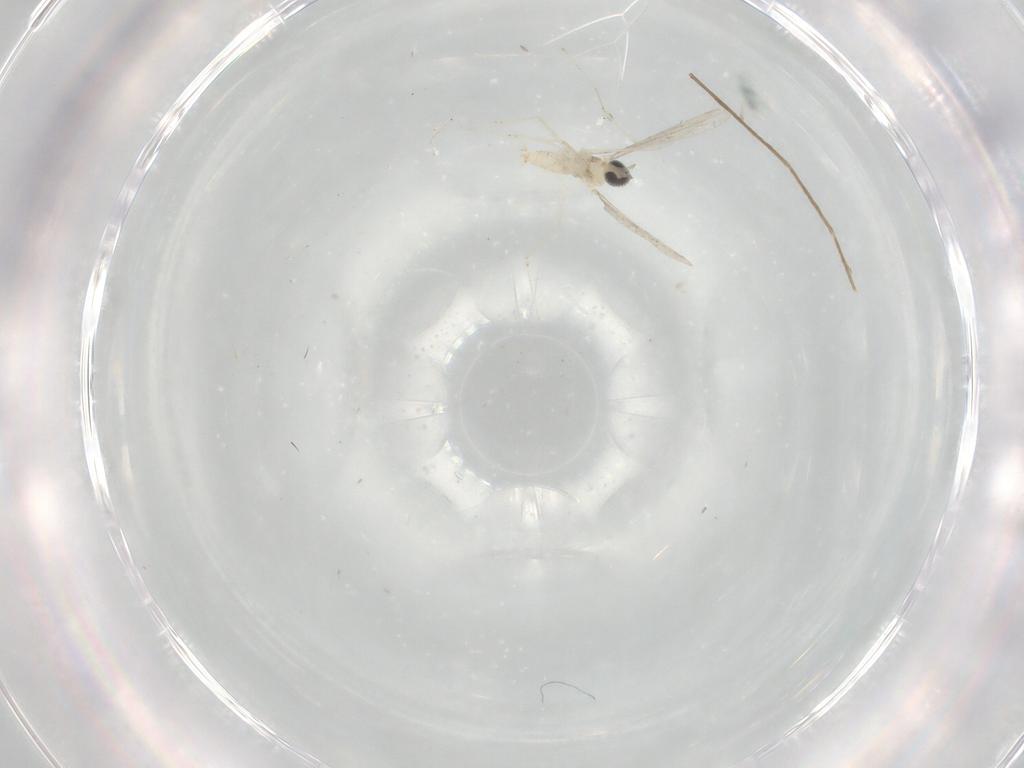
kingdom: Animalia
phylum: Arthropoda
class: Insecta
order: Diptera
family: Cecidomyiidae
